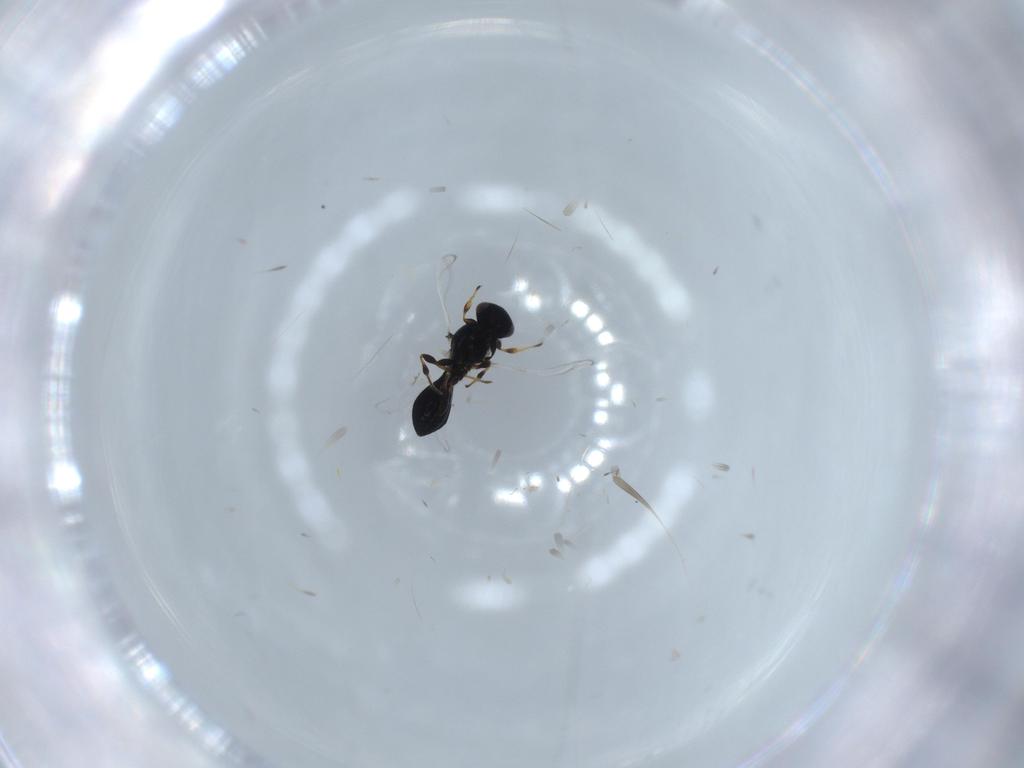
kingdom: Animalia
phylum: Arthropoda
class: Insecta
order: Hymenoptera
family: Platygastridae
